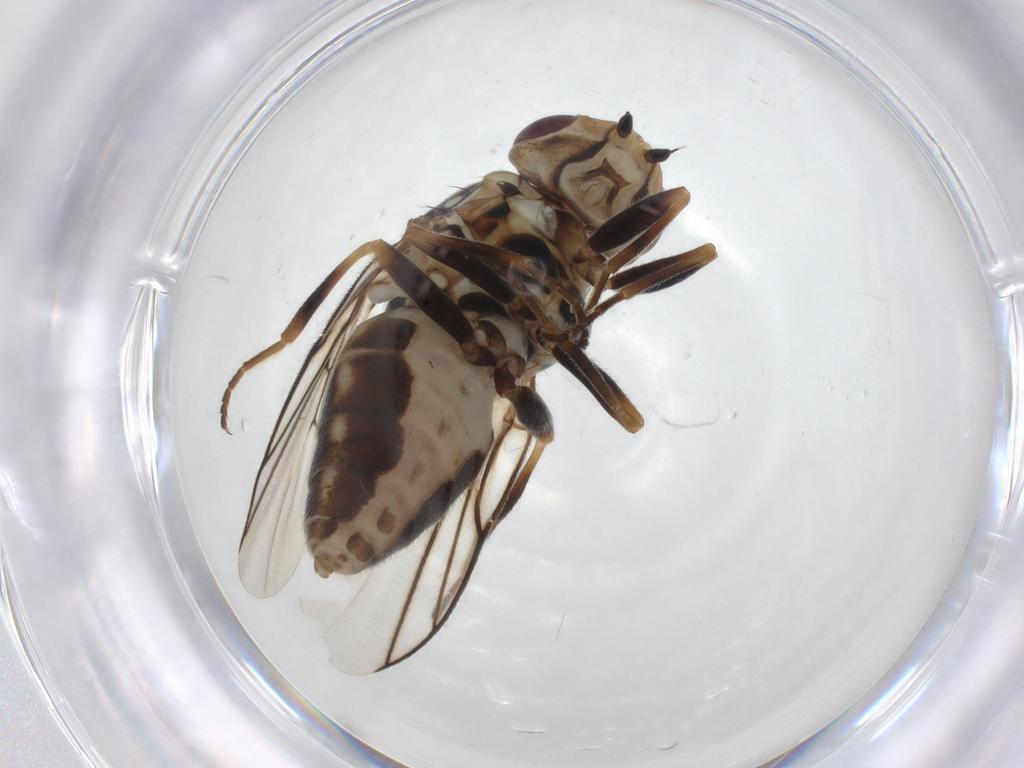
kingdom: Animalia
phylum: Arthropoda
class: Insecta
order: Diptera
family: Chloropidae
